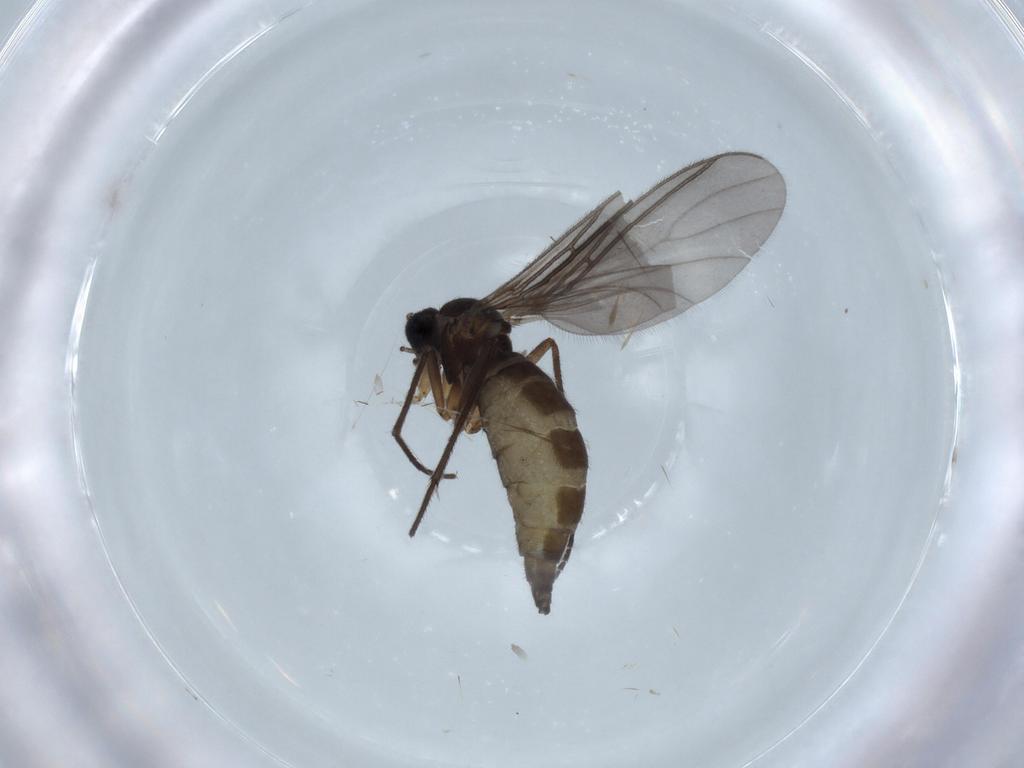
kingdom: Animalia
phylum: Arthropoda
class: Insecta
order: Diptera
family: Sciaridae
